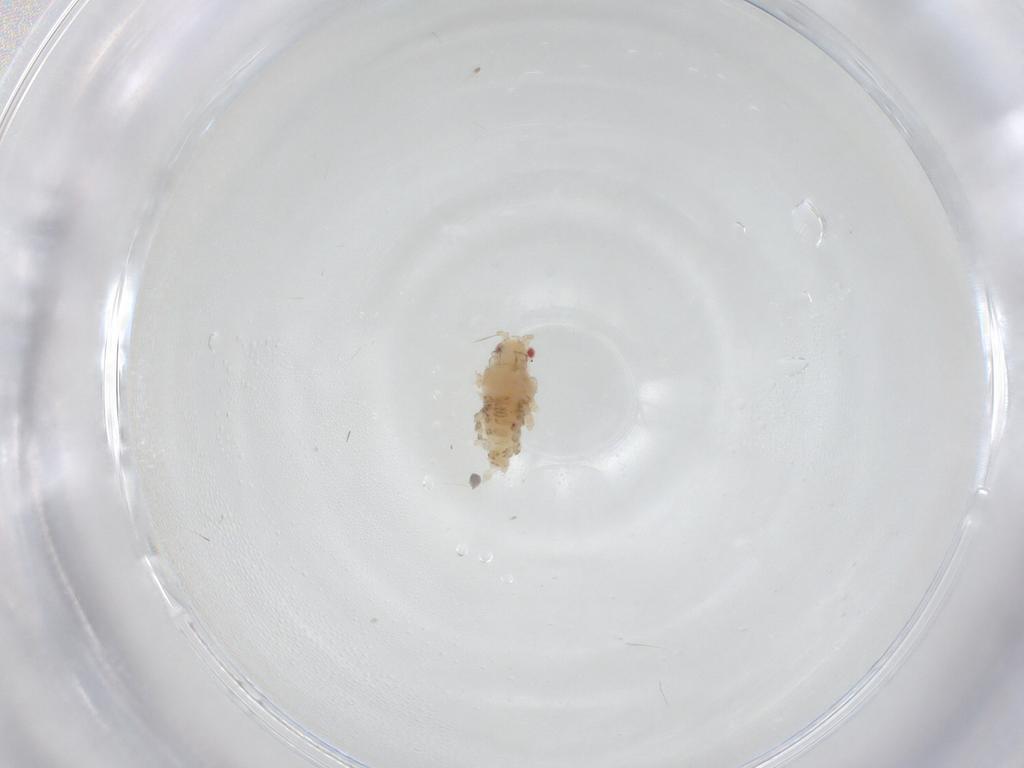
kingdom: Animalia
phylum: Arthropoda
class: Insecta
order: Hemiptera
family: Aphididae
